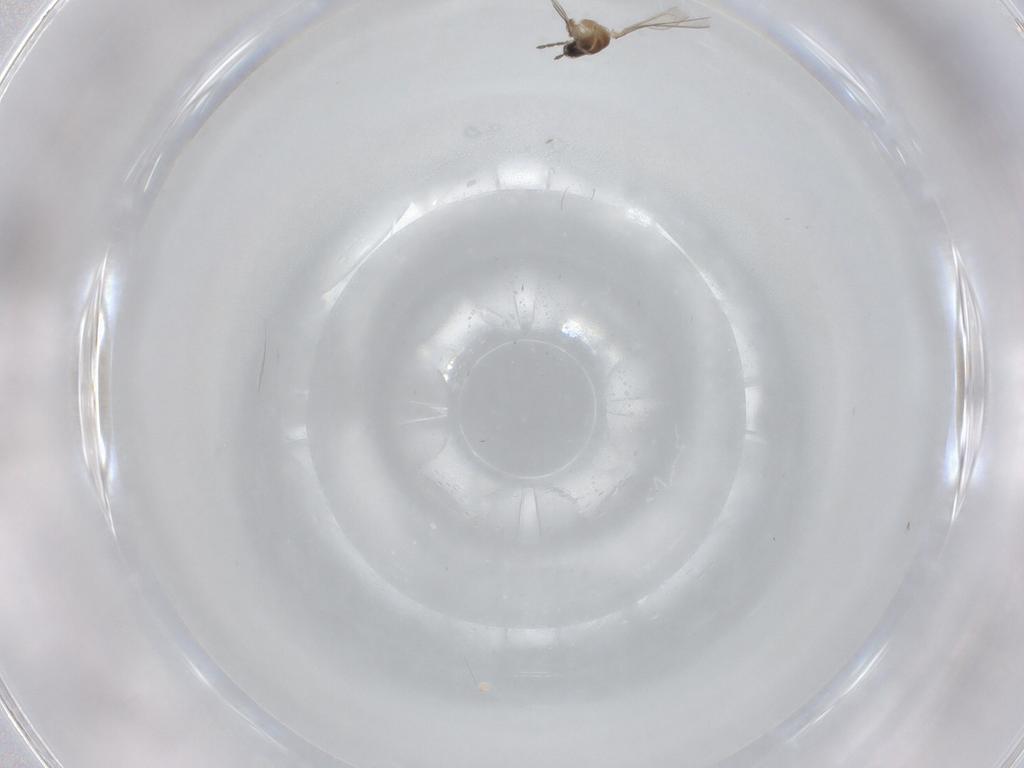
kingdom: Animalia
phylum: Arthropoda
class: Insecta
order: Diptera
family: Cecidomyiidae
